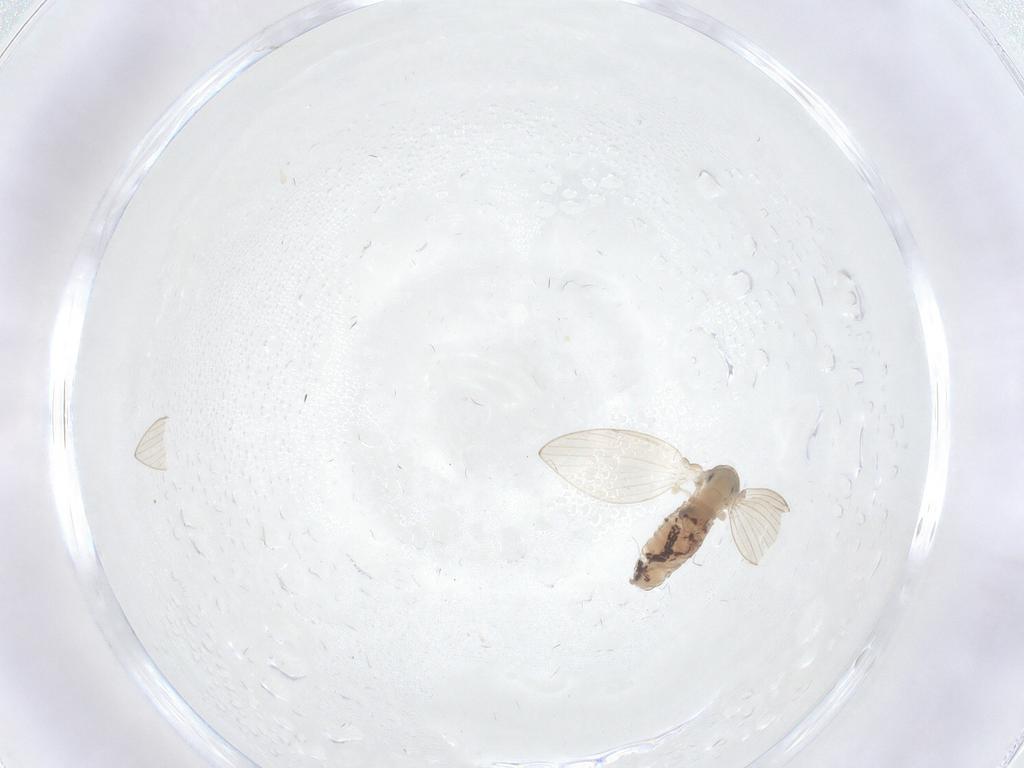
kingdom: Animalia
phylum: Arthropoda
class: Insecta
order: Diptera
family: Psychodidae
